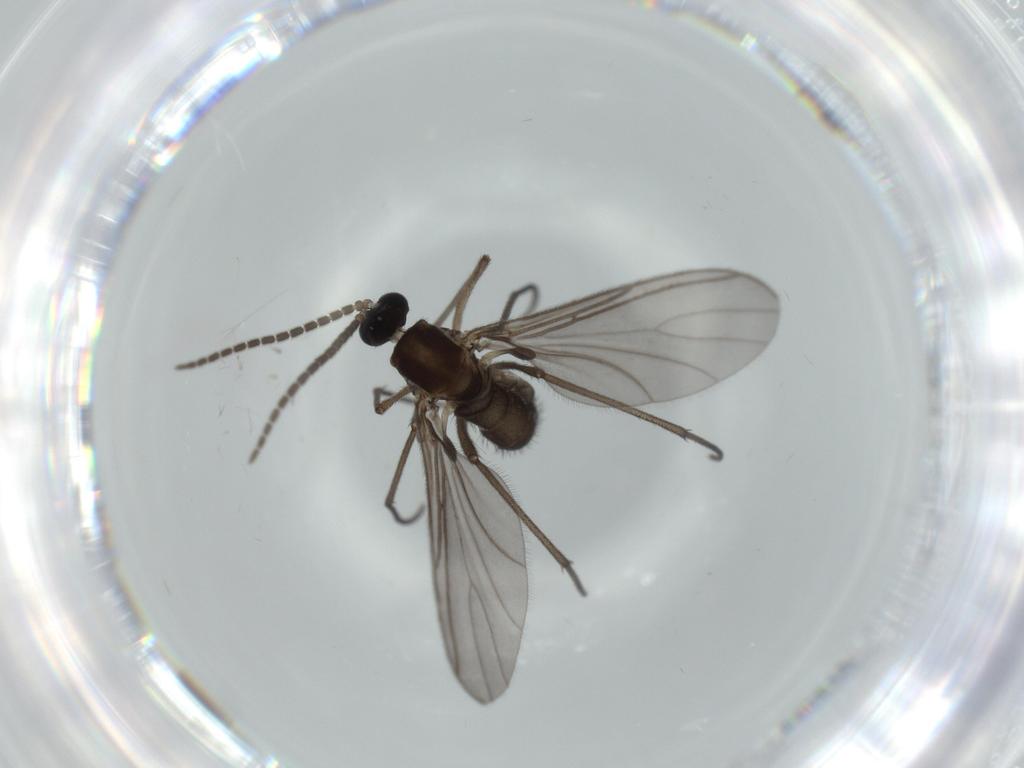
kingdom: Animalia
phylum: Arthropoda
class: Insecta
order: Diptera
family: Sciaridae
